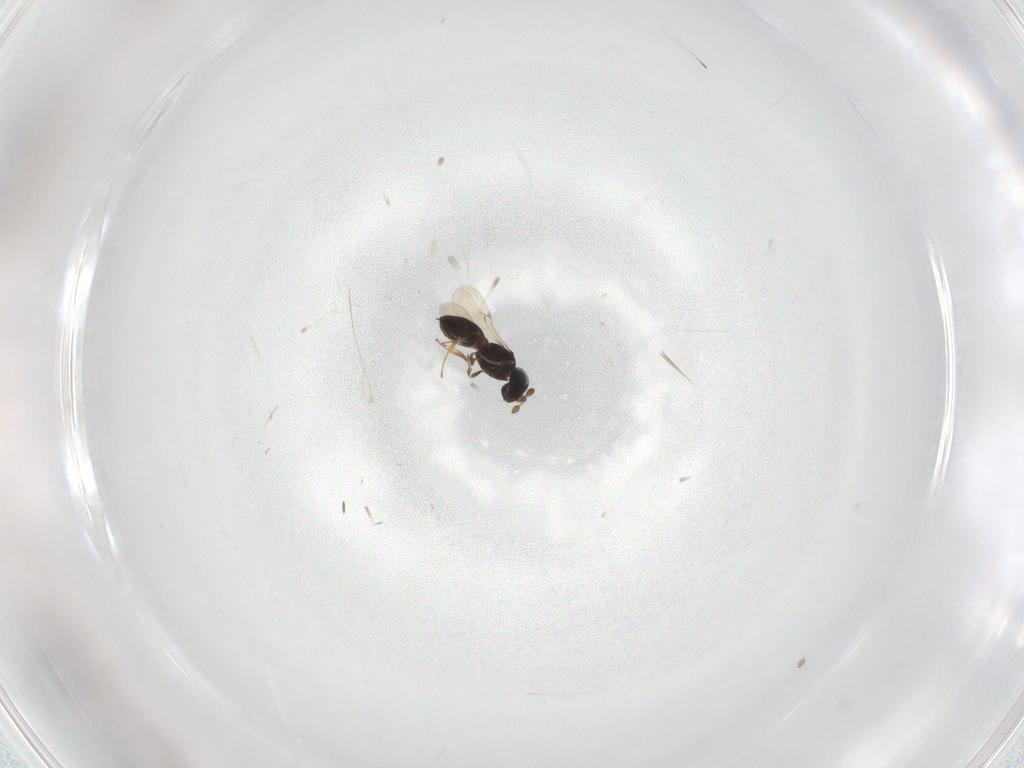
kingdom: Animalia
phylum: Arthropoda
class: Insecta
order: Hymenoptera
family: Scelionidae
